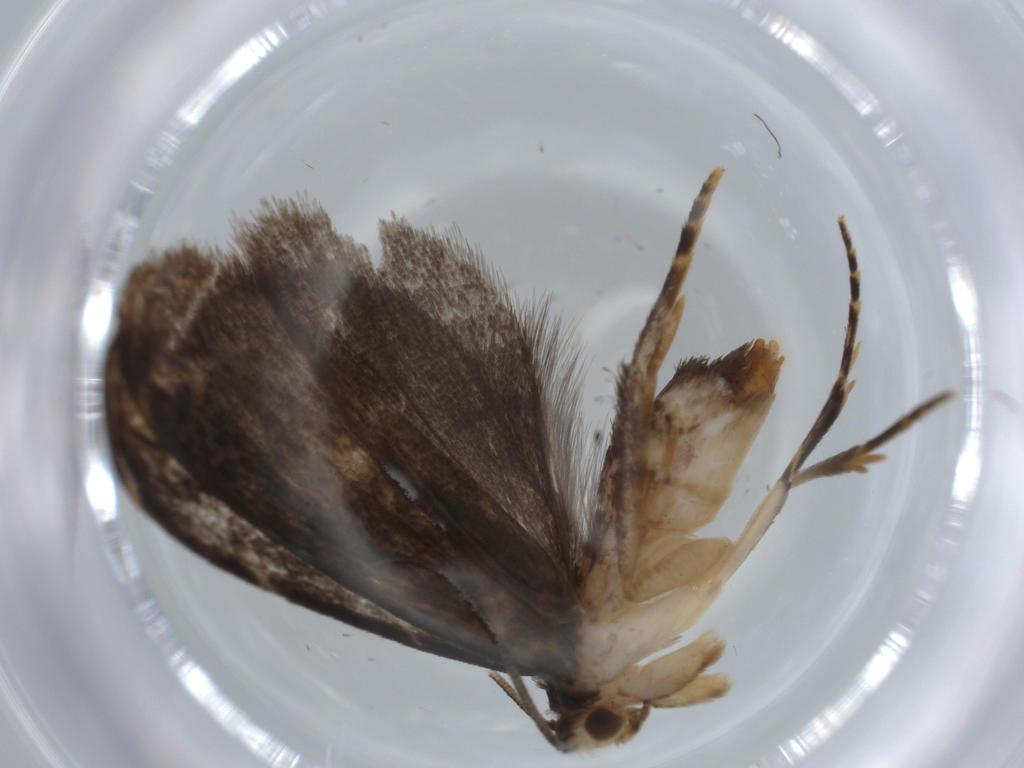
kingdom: Animalia
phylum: Arthropoda
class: Insecta
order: Lepidoptera
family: Dryadaulidae
